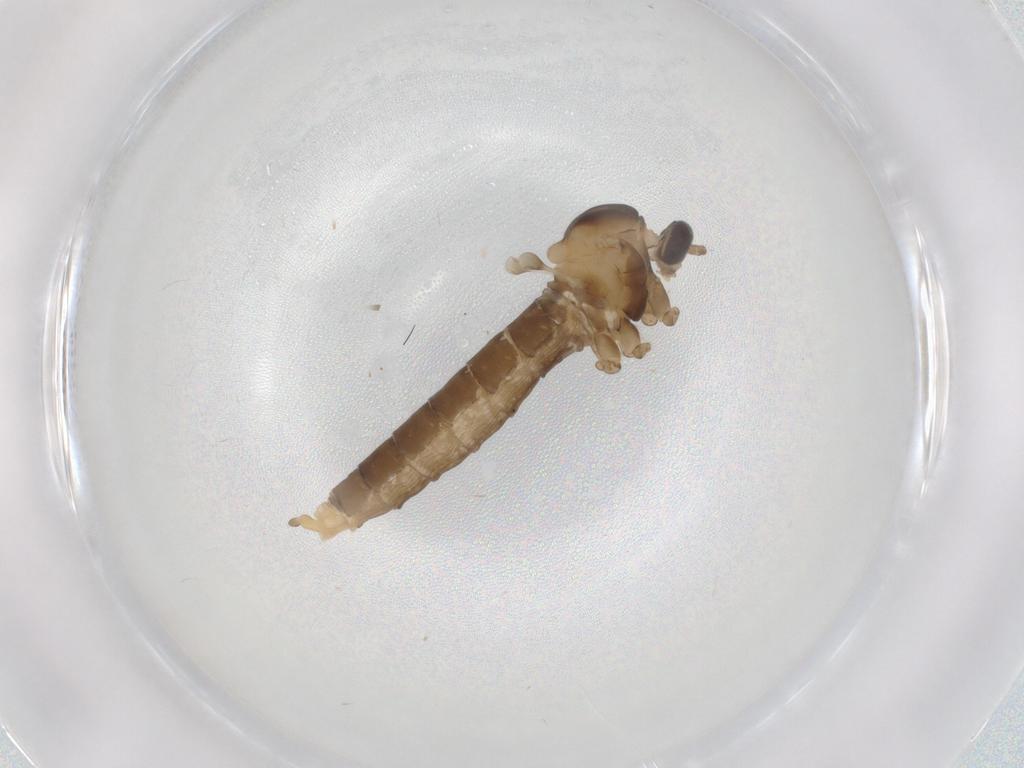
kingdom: Animalia
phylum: Arthropoda
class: Insecta
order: Diptera
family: Cecidomyiidae
